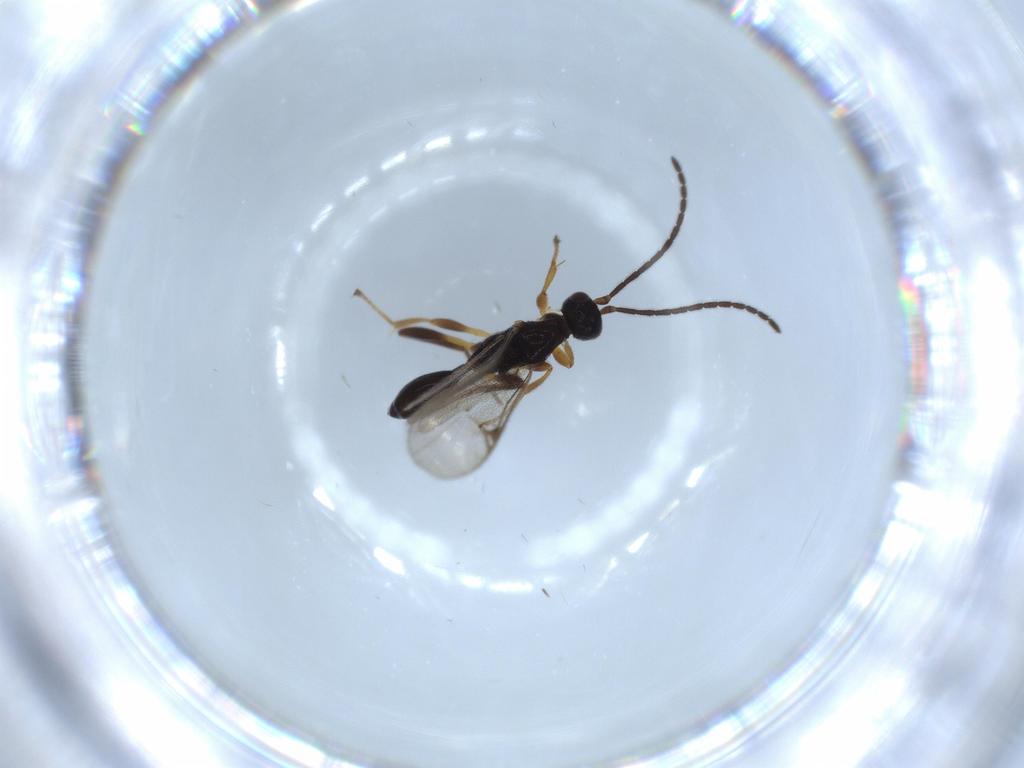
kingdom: Animalia
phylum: Arthropoda
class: Insecta
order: Hymenoptera
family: Proctotrupidae
